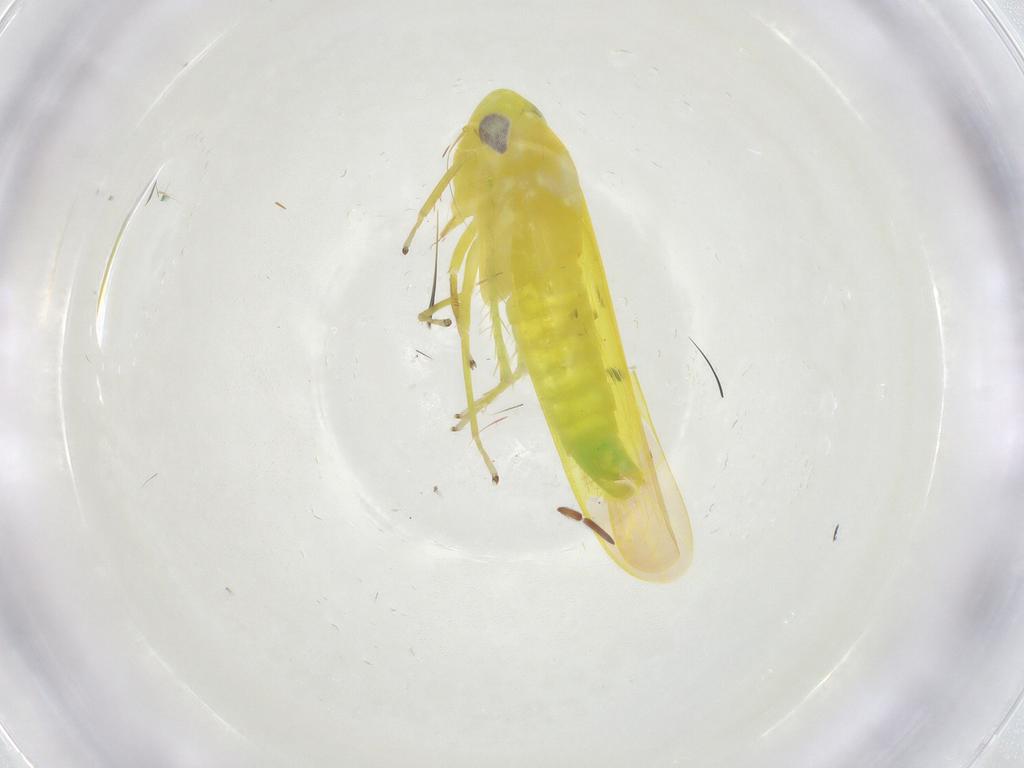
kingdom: Animalia
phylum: Arthropoda
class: Insecta
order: Hemiptera
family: Cicadellidae
